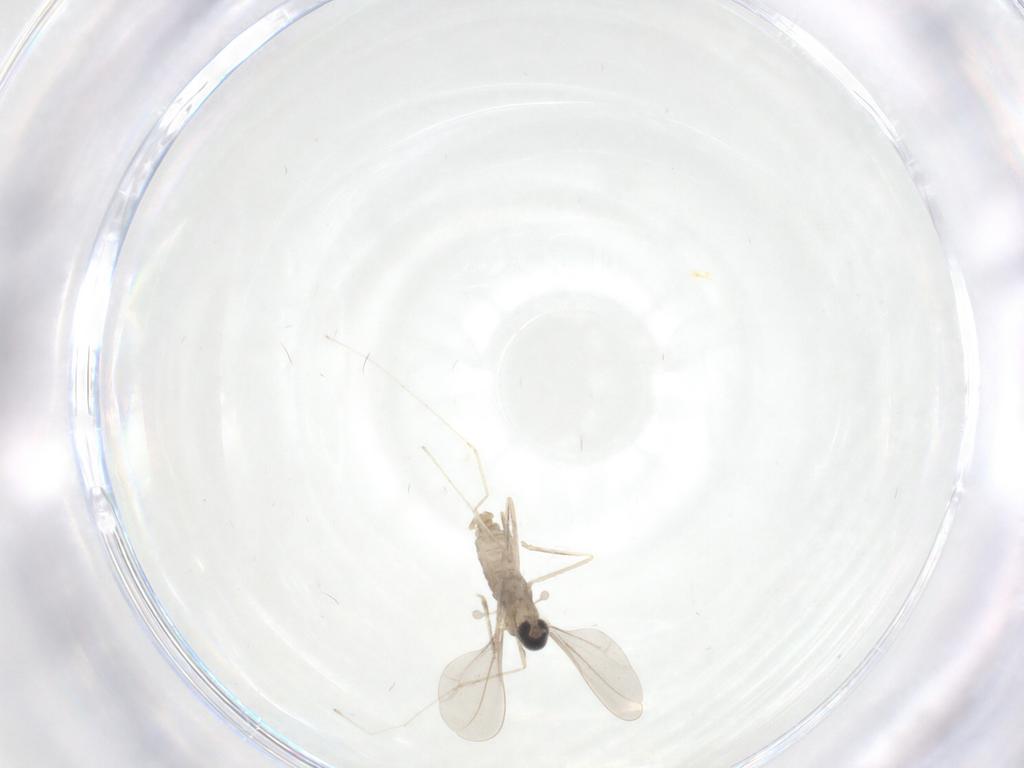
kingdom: Animalia
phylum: Arthropoda
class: Insecta
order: Diptera
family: Cecidomyiidae
